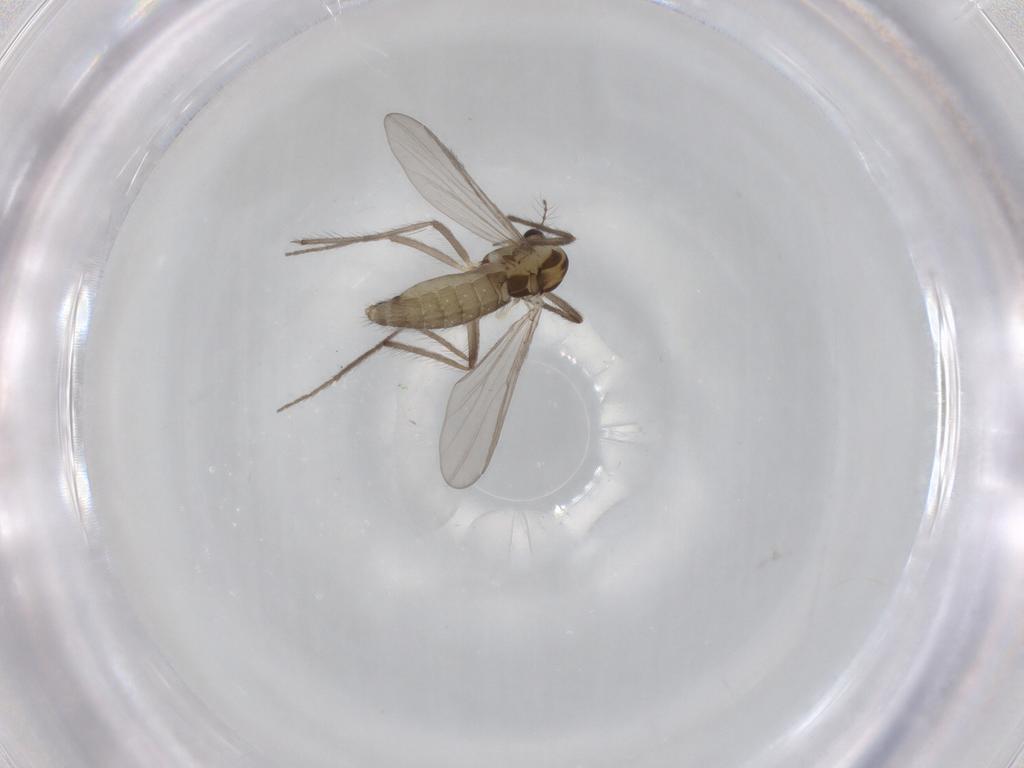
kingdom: Animalia
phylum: Arthropoda
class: Insecta
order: Diptera
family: Chironomidae
